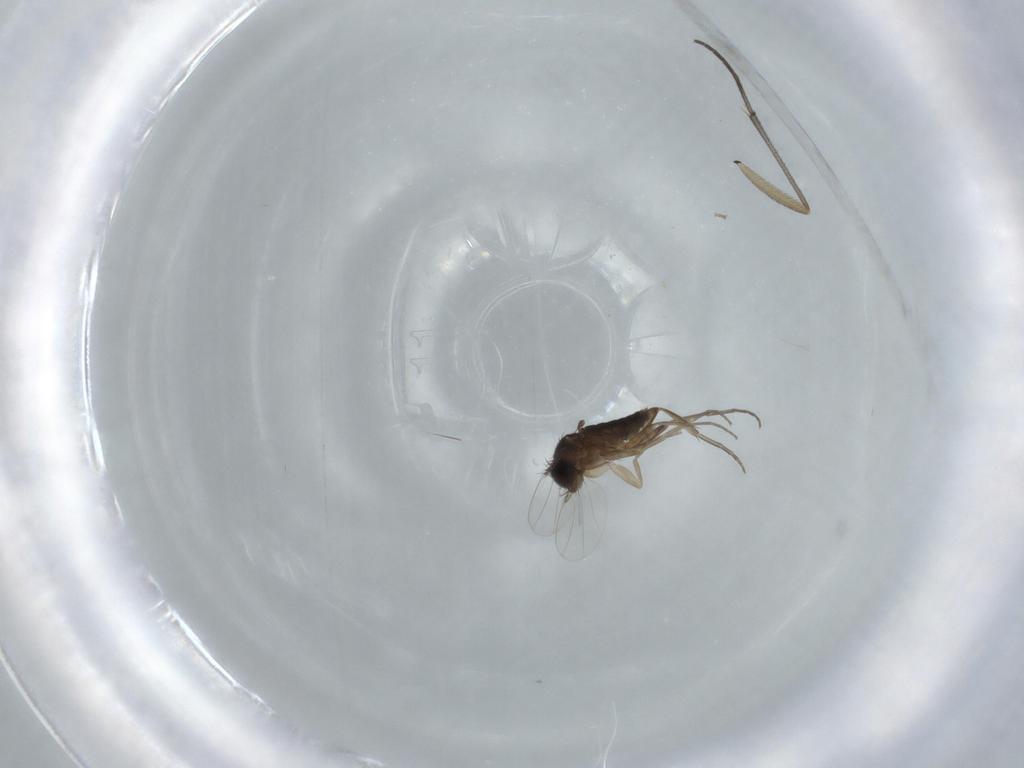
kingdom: Animalia
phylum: Arthropoda
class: Insecta
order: Diptera
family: Phoridae
